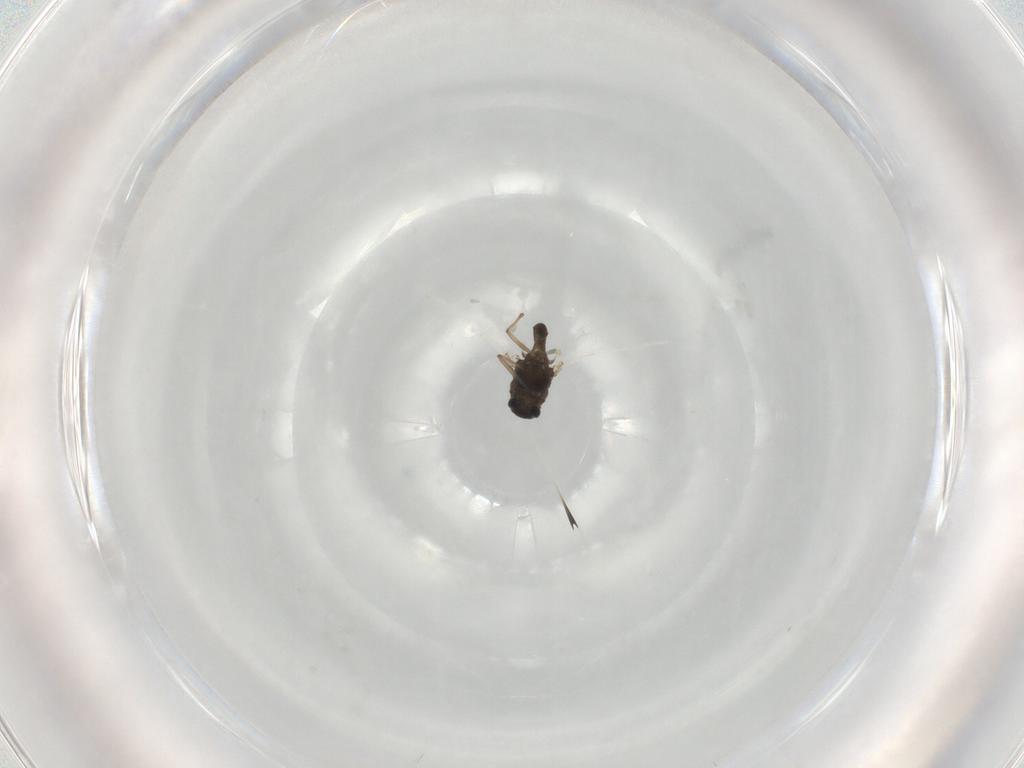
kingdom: Animalia
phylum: Arthropoda
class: Insecta
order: Diptera
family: Chironomidae
